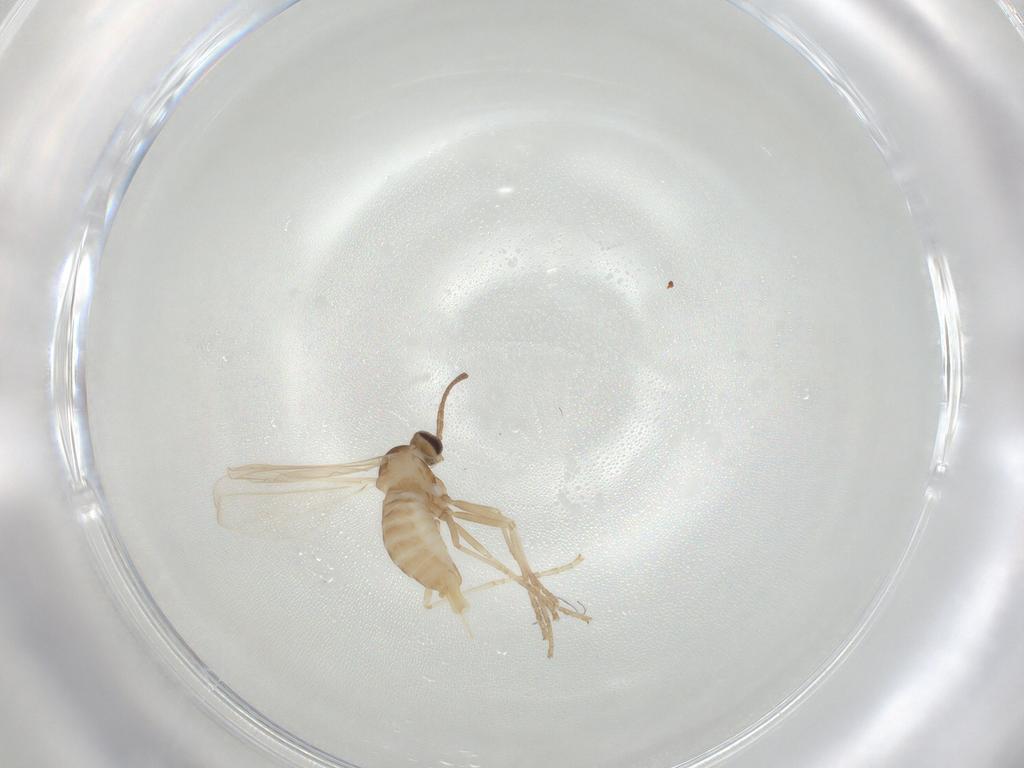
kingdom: Animalia
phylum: Arthropoda
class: Insecta
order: Diptera
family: Cecidomyiidae
